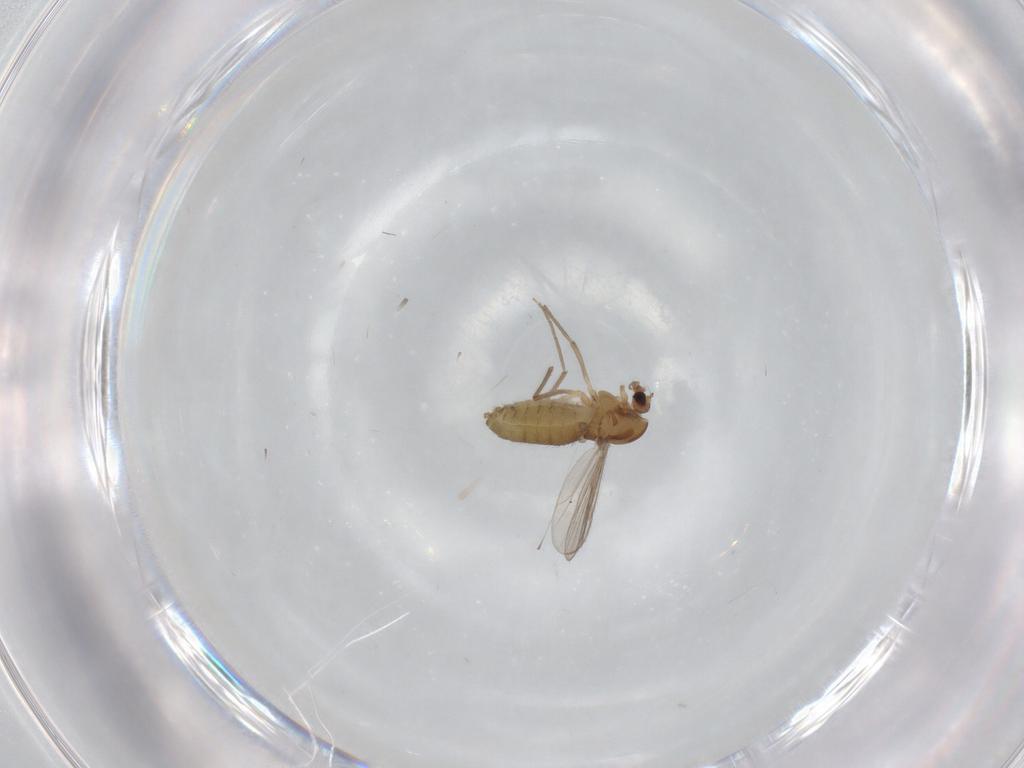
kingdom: Animalia
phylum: Arthropoda
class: Insecta
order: Diptera
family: Chironomidae
